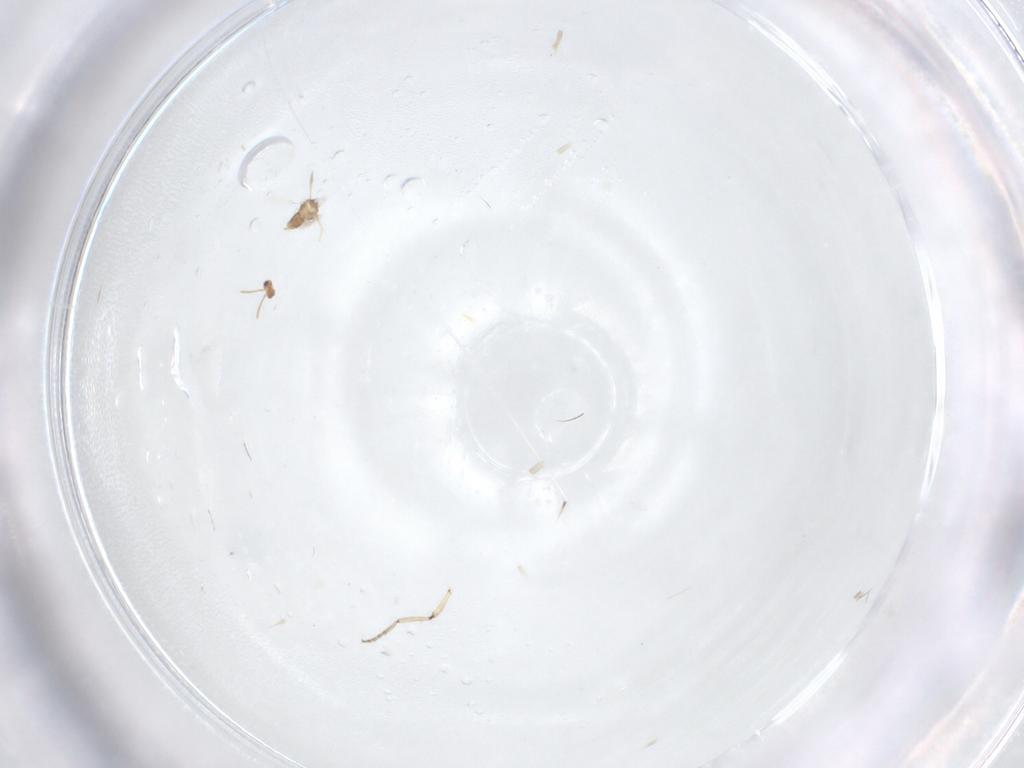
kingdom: Animalia
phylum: Arthropoda
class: Insecta
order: Hymenoptera
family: Aphelinidae
